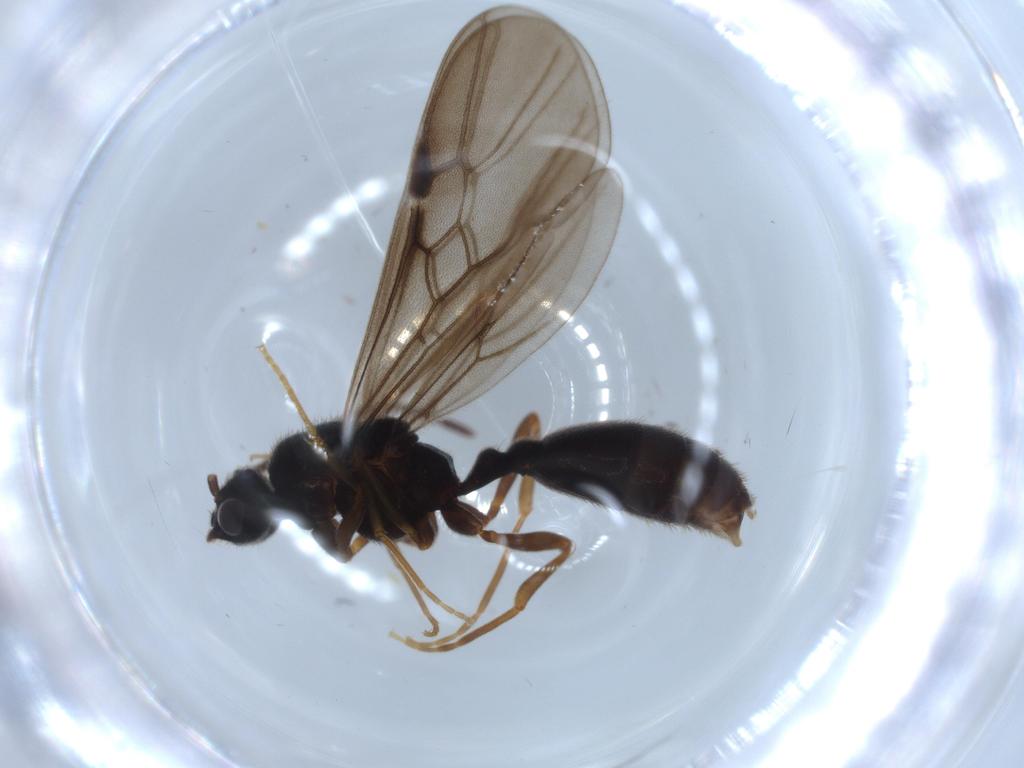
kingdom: Animalia
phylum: Arthropoda
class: Insecta
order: Hymenoptera
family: Formicidae
